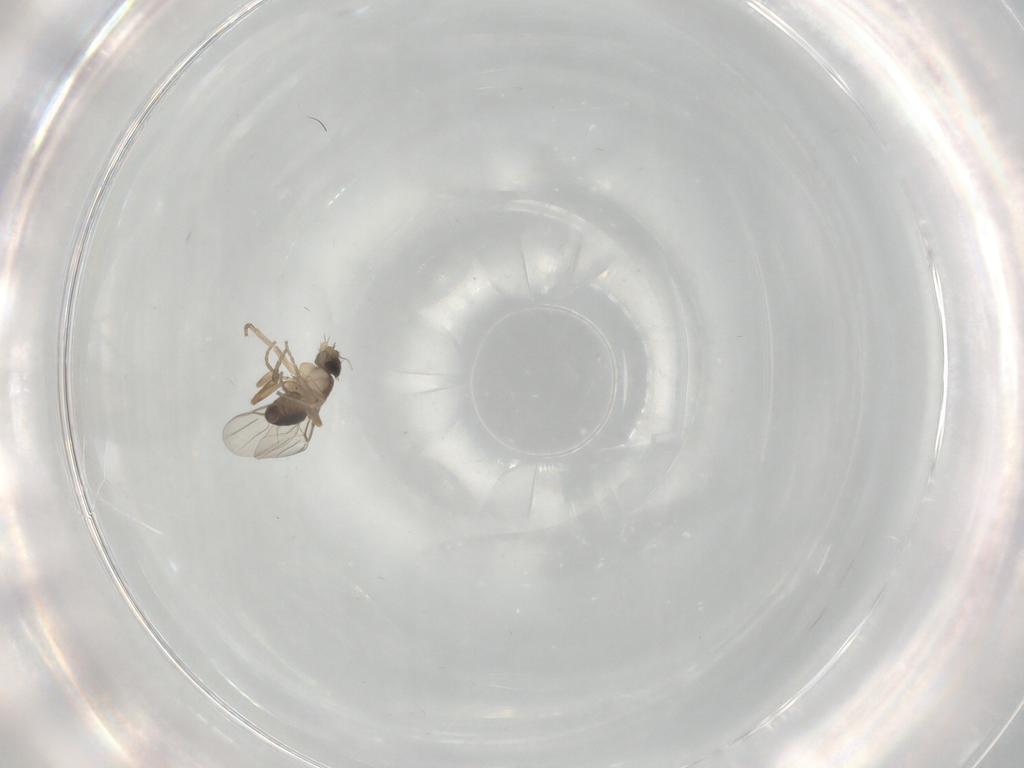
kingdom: Animalia
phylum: Arthropoda
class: Insecta
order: Diptera
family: Phoridae
